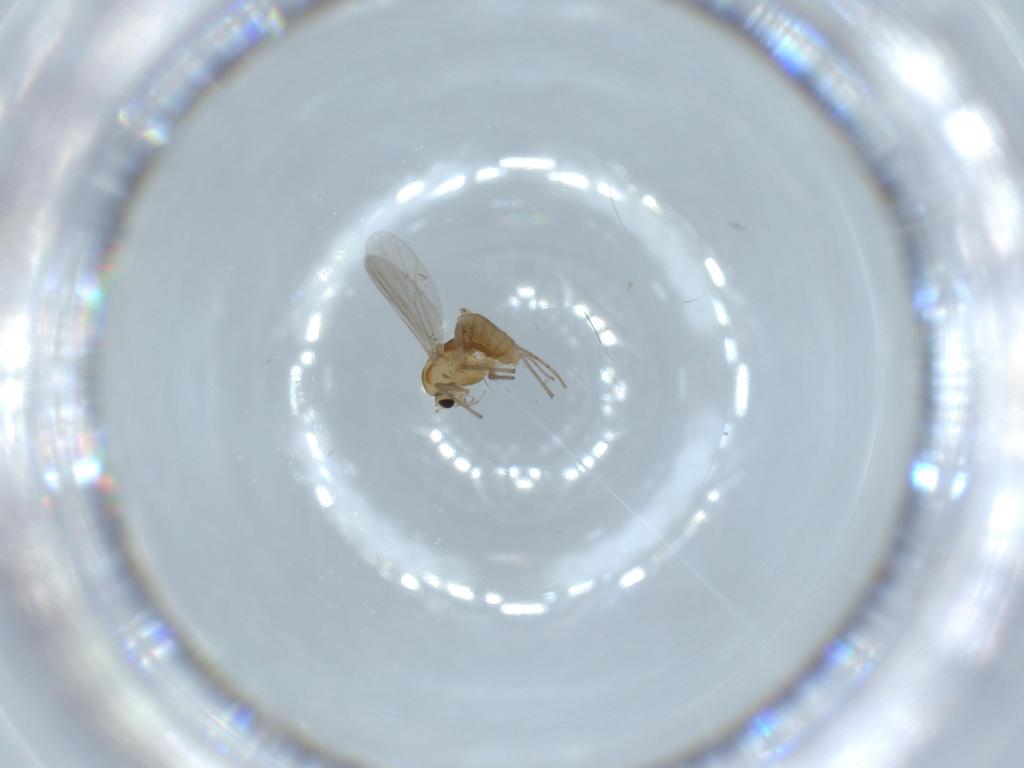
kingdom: Animalia
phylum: Arthropoda
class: Insecta
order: Diptera
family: Chironomidae
